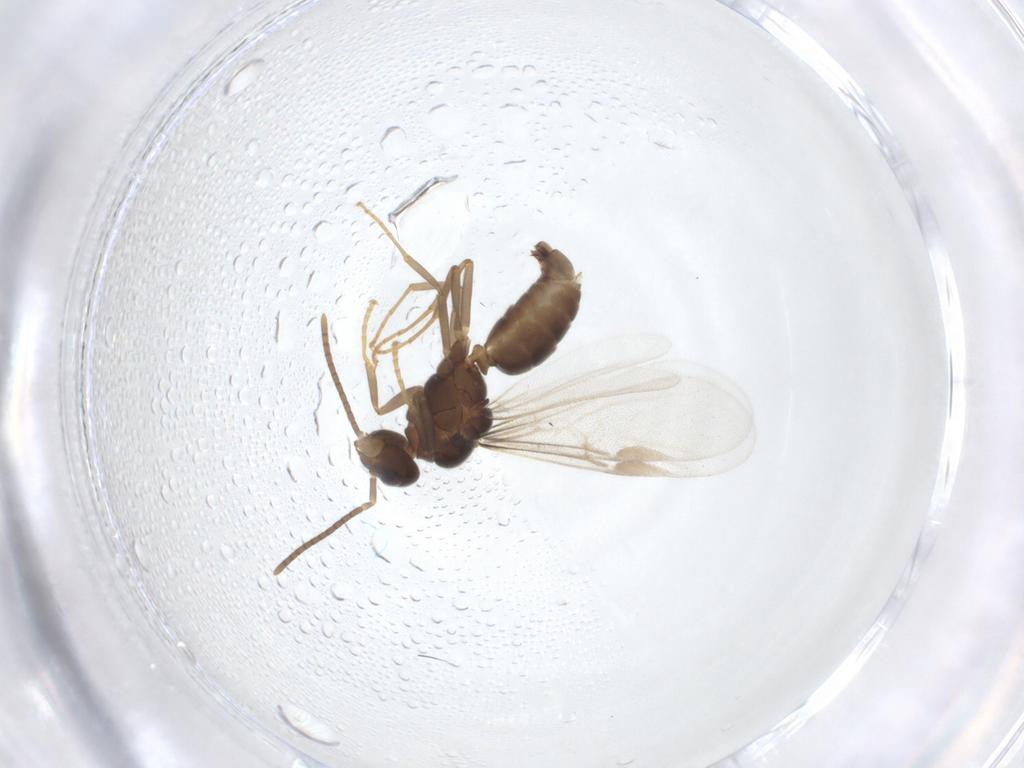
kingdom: Animalia
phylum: Arthropoda
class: Insecta
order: Hymenoptera
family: Formicidae
